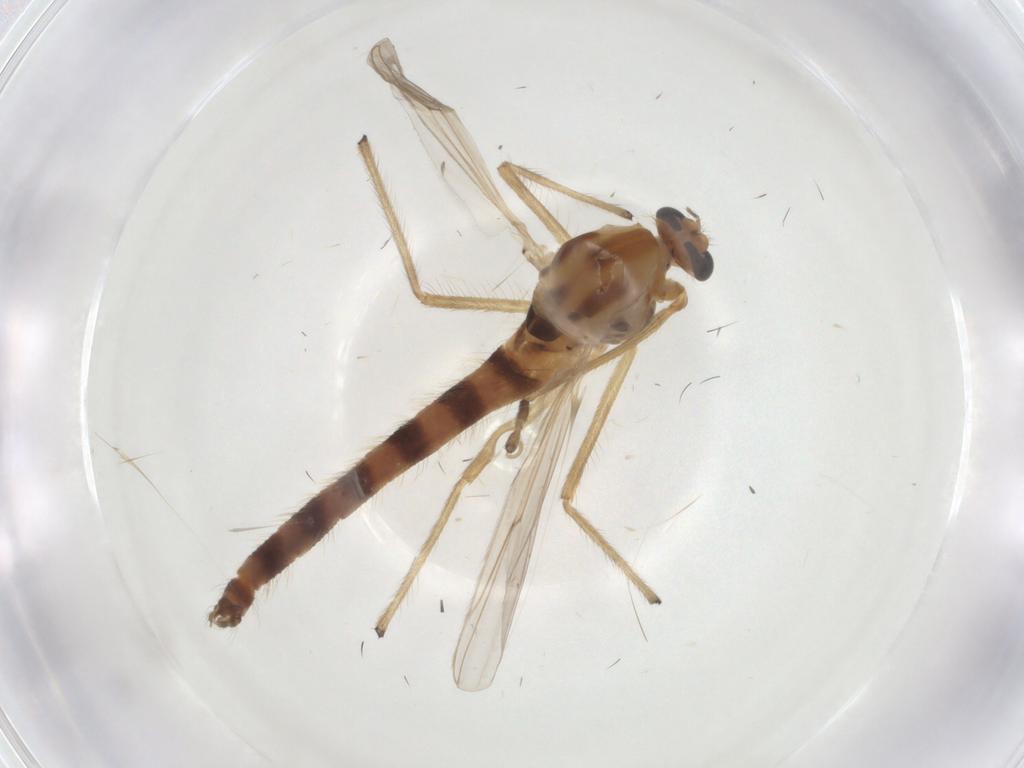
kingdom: Animalia
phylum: Arthropoda
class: Insecta
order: Diptera
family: Chironomidae
